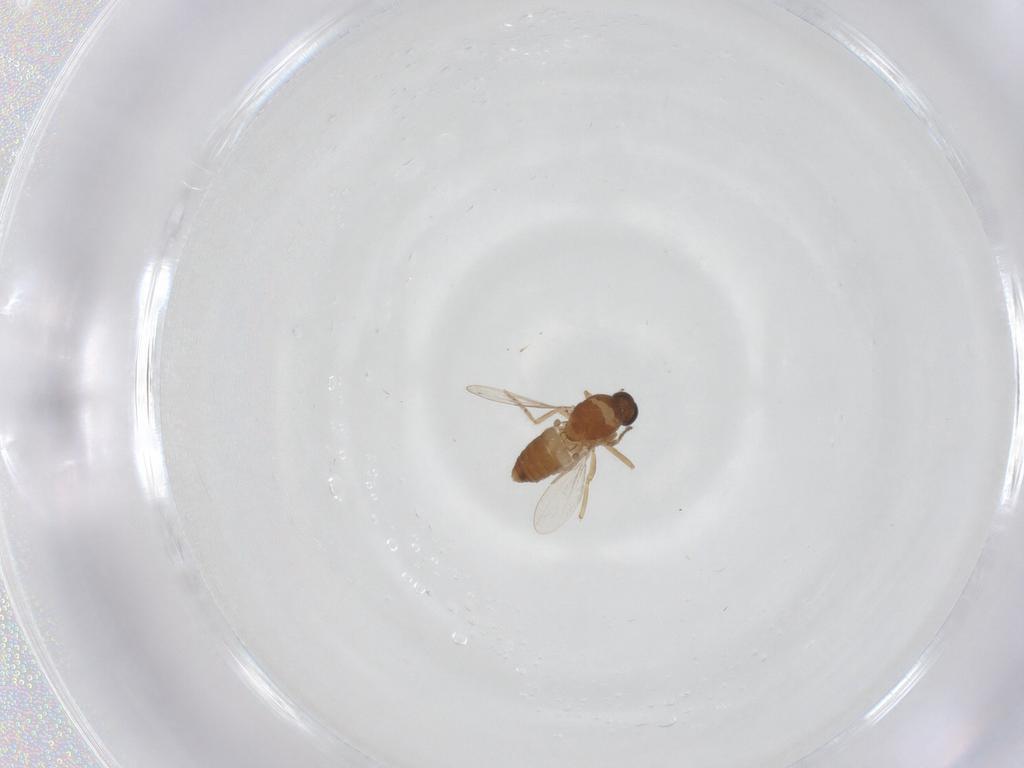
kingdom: Animalia
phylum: Arthropoda
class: Insecta
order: Diptera
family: Ceratopogonidae
